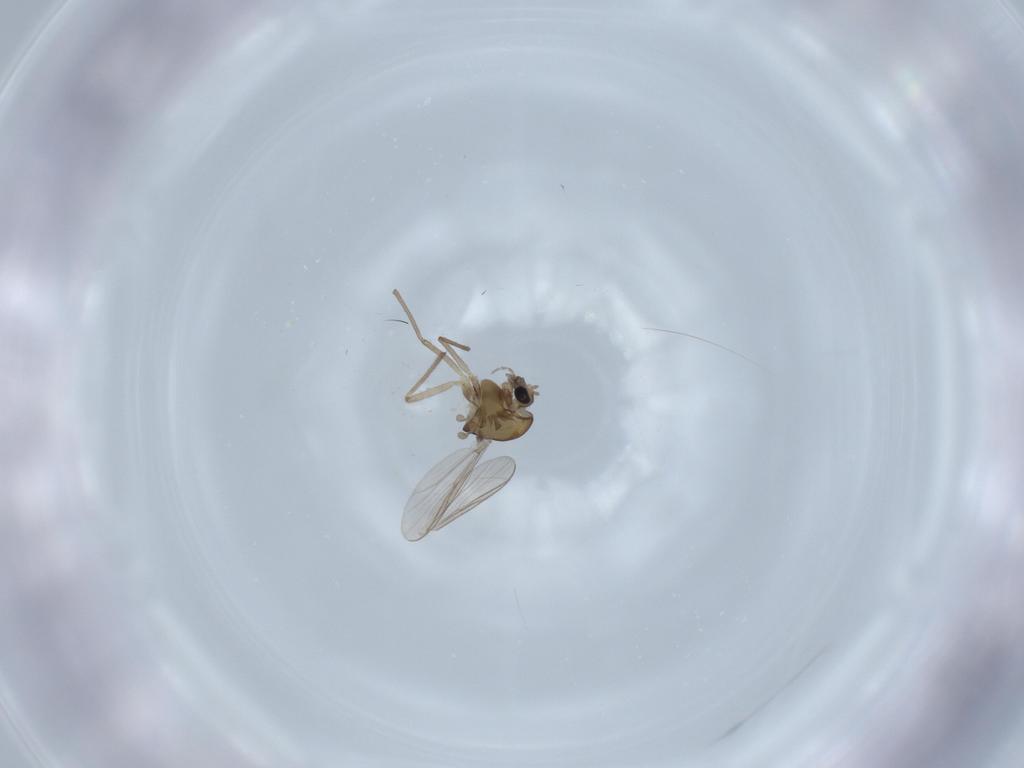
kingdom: Animalia
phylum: Arthropoda
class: Insecta
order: Diptera
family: Chironomidae
